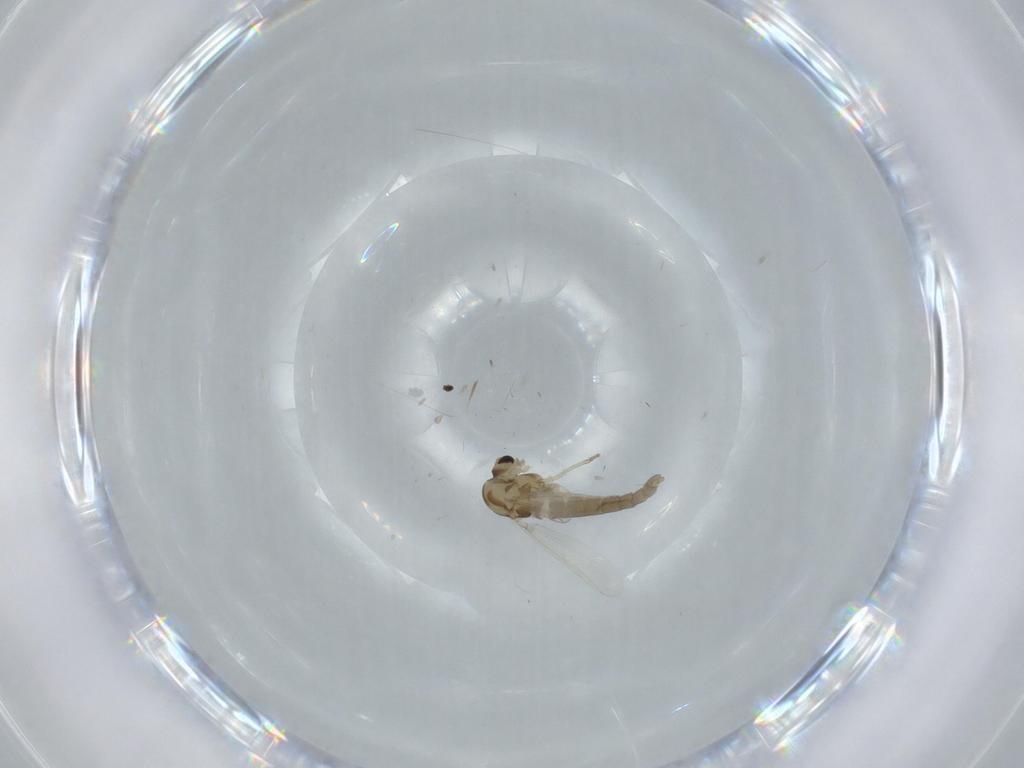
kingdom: Animalia
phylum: Arthropoda
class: Insecta
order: Diptera
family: Chironomidae
